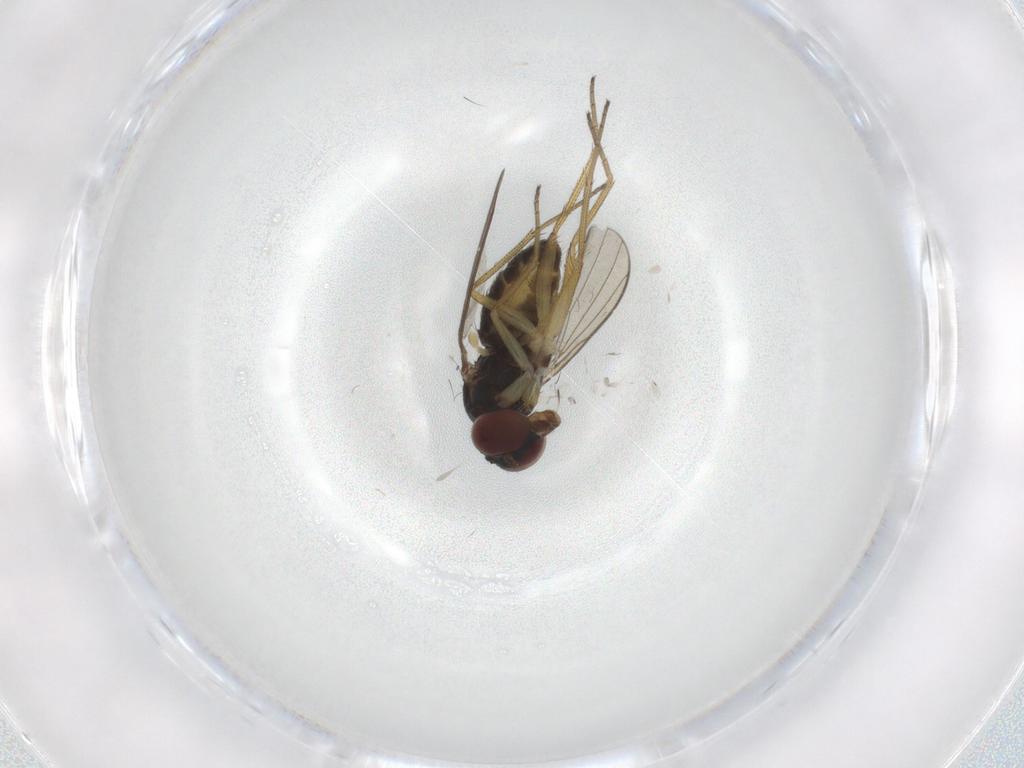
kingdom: Animalia
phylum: Arthropoda
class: Insecta
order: Diptera
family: Dolichopodidae
